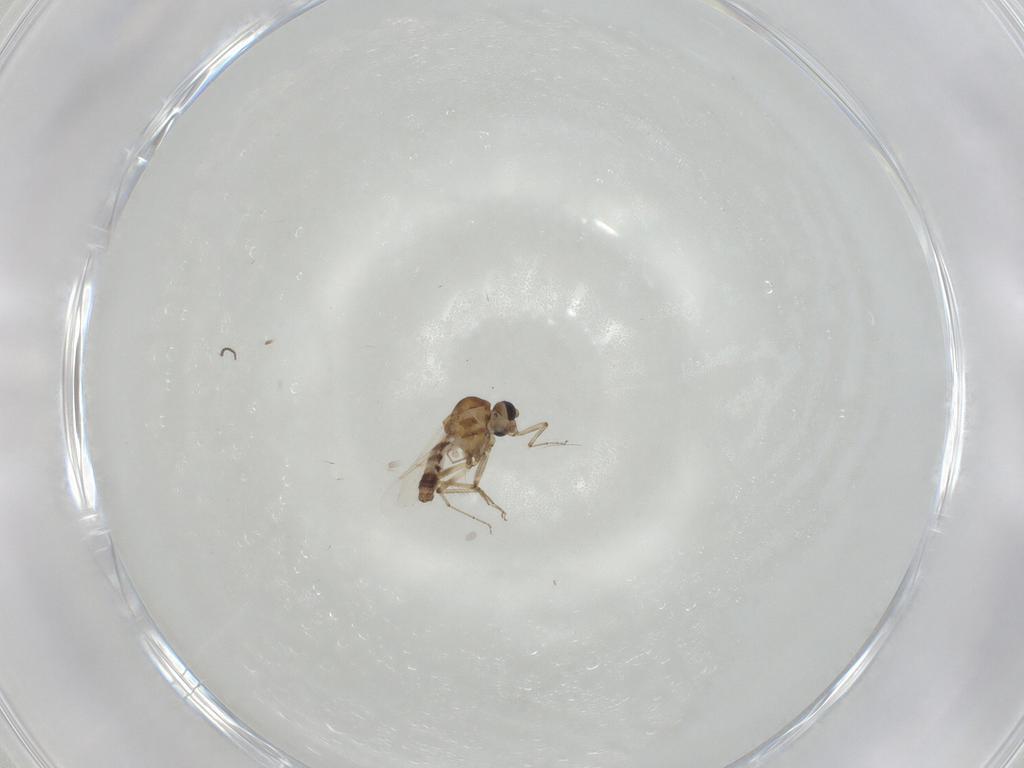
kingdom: Animalia
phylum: Arthropoda
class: Insecta
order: Diptera
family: Ceratopogonidae
